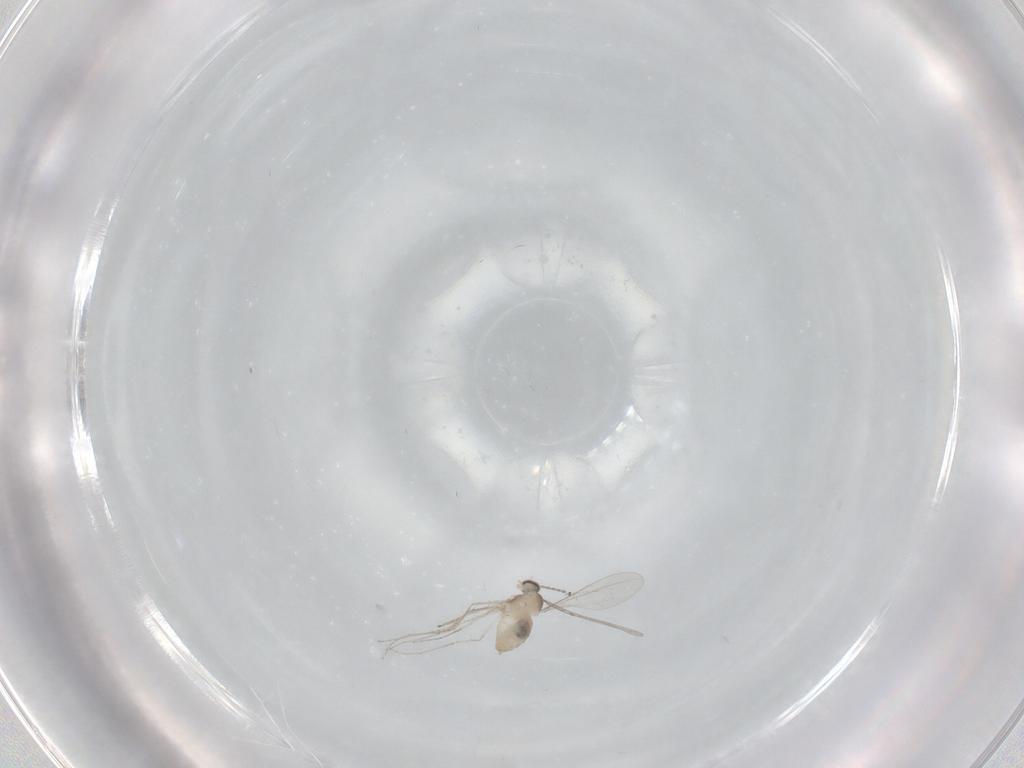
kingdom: Animalia
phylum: Arthropoda
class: Insecta
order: Diptera
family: Cecidomyiidae
